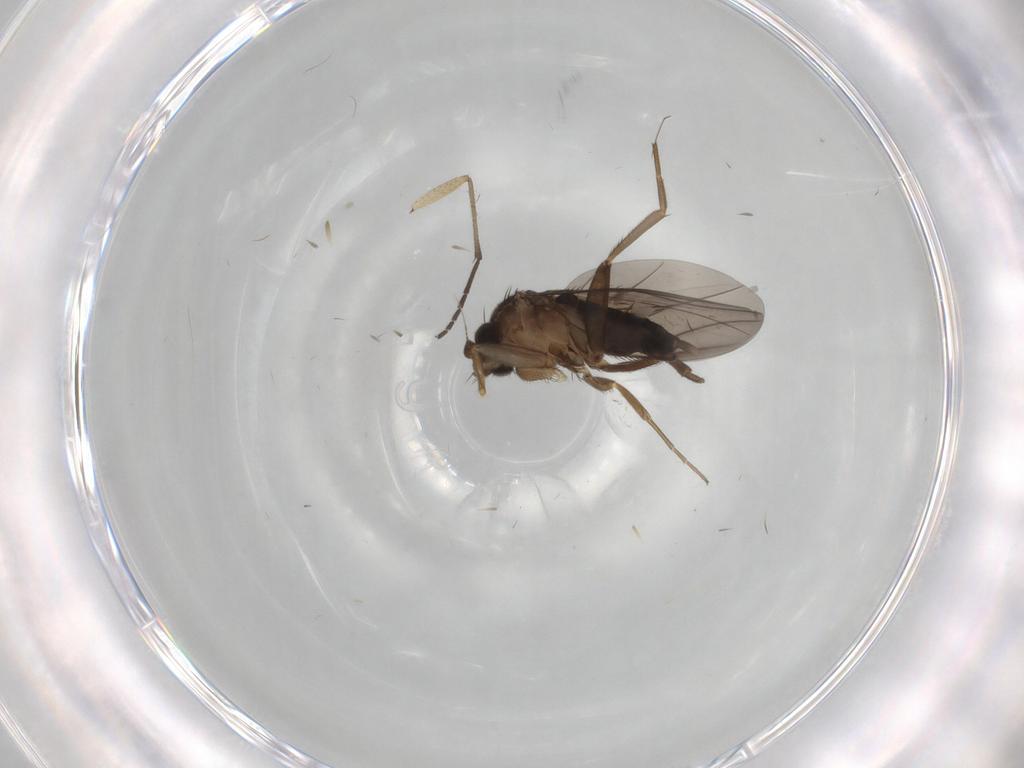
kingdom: Animalia
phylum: Arthropoda
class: Insecta
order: Diptera
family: Sciaridae
